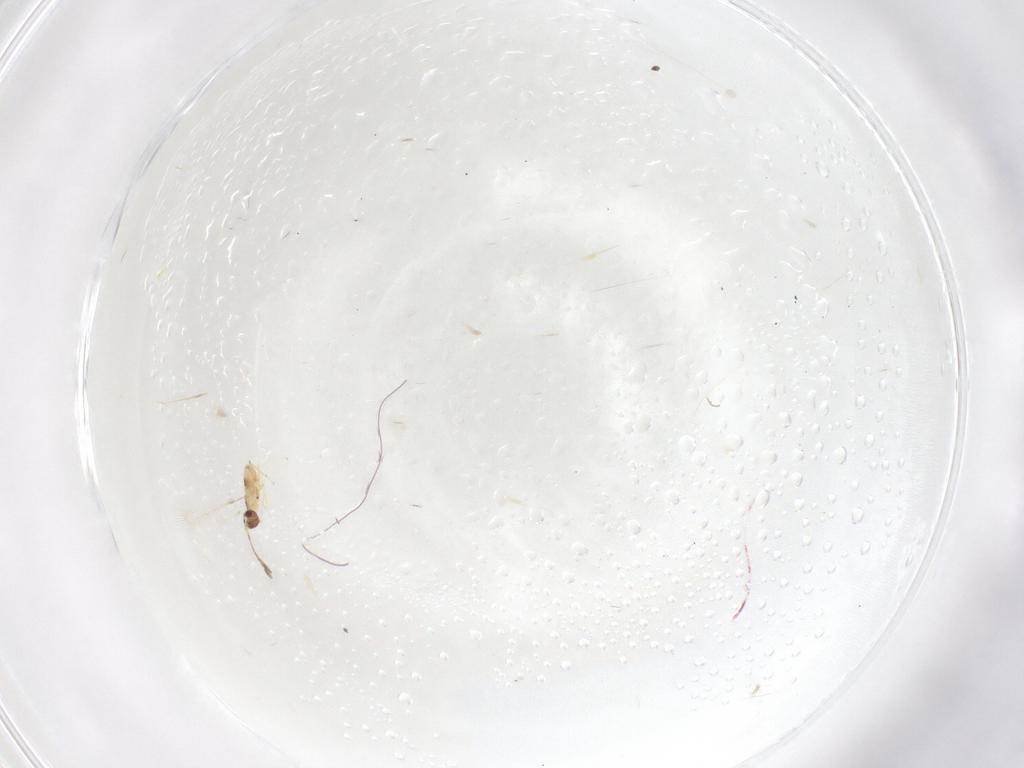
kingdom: Animalia
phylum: Arthropoda
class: Insecta
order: Hymenoptera
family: Mymaridae
